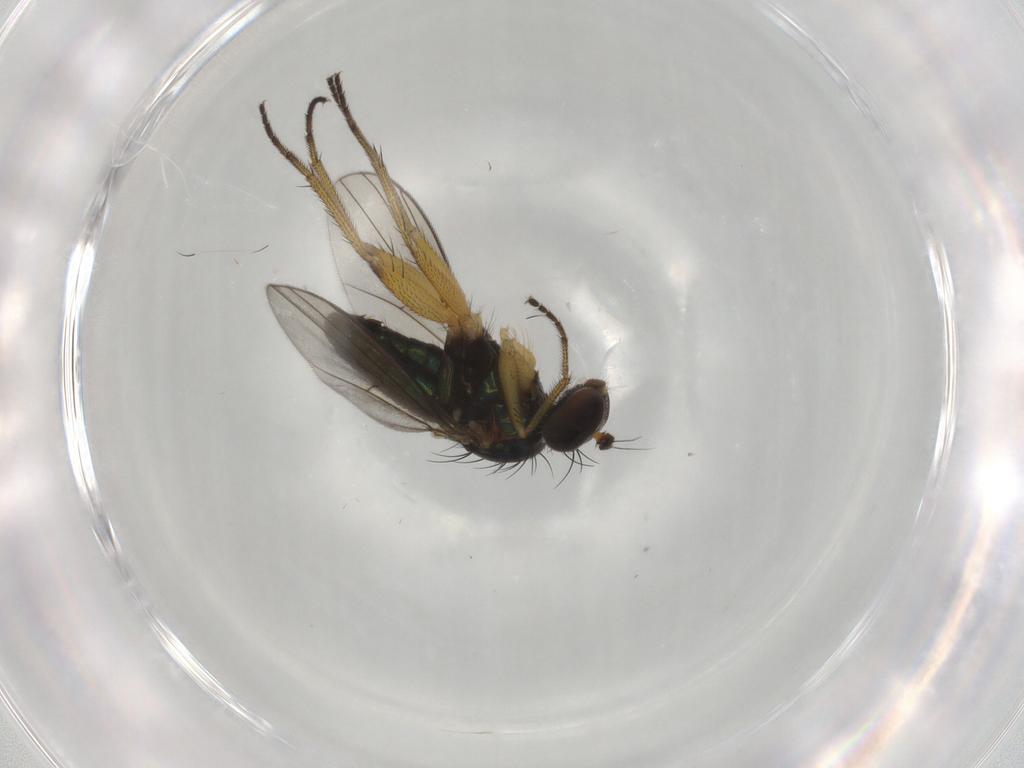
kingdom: Animalia
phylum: Arthropoda
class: Insecta
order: Diptera
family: Dolichopodidae
